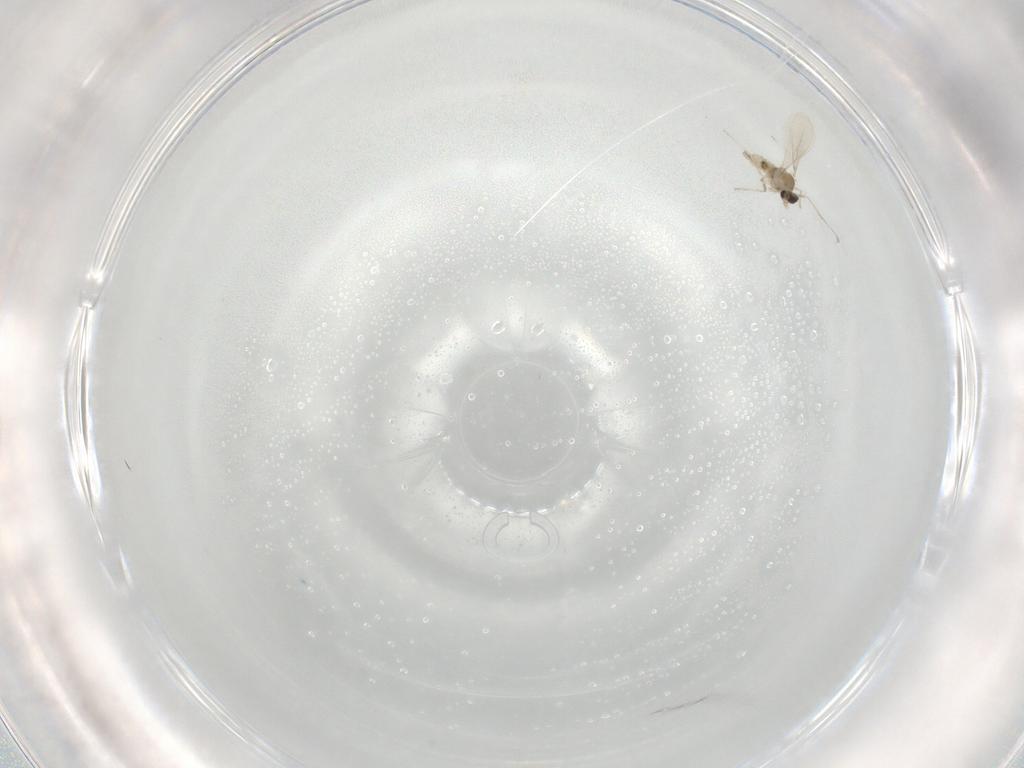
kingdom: Animalia
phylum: Arthropoda
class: Insecta
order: Diptera
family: Cecidomyiidae
